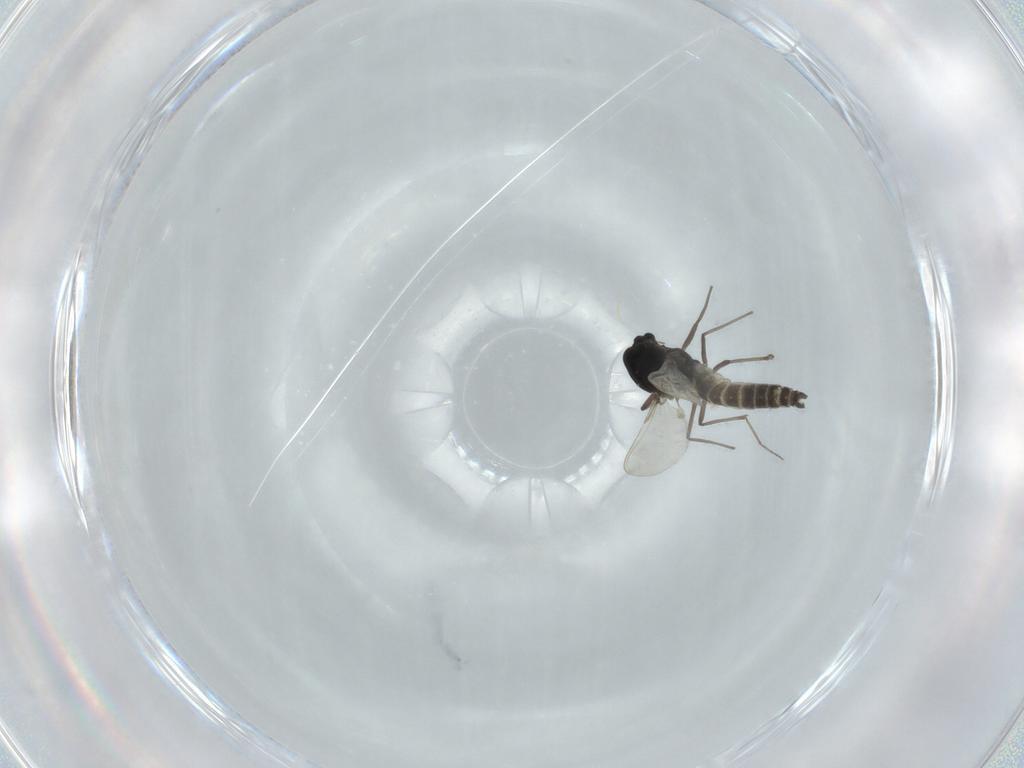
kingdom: Animalia
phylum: Arthropoda
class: Insecta
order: Diptera
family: Chironomidae
